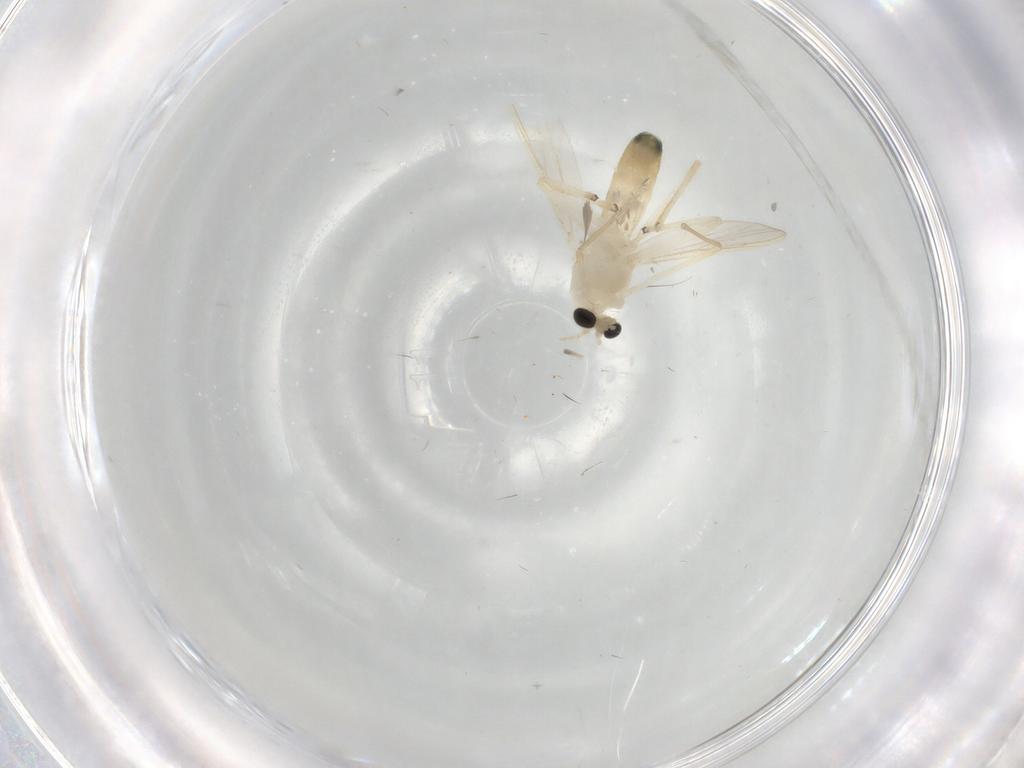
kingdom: Animalia
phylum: Arthropoda
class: Insecta
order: Diptera
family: Chironomidae
